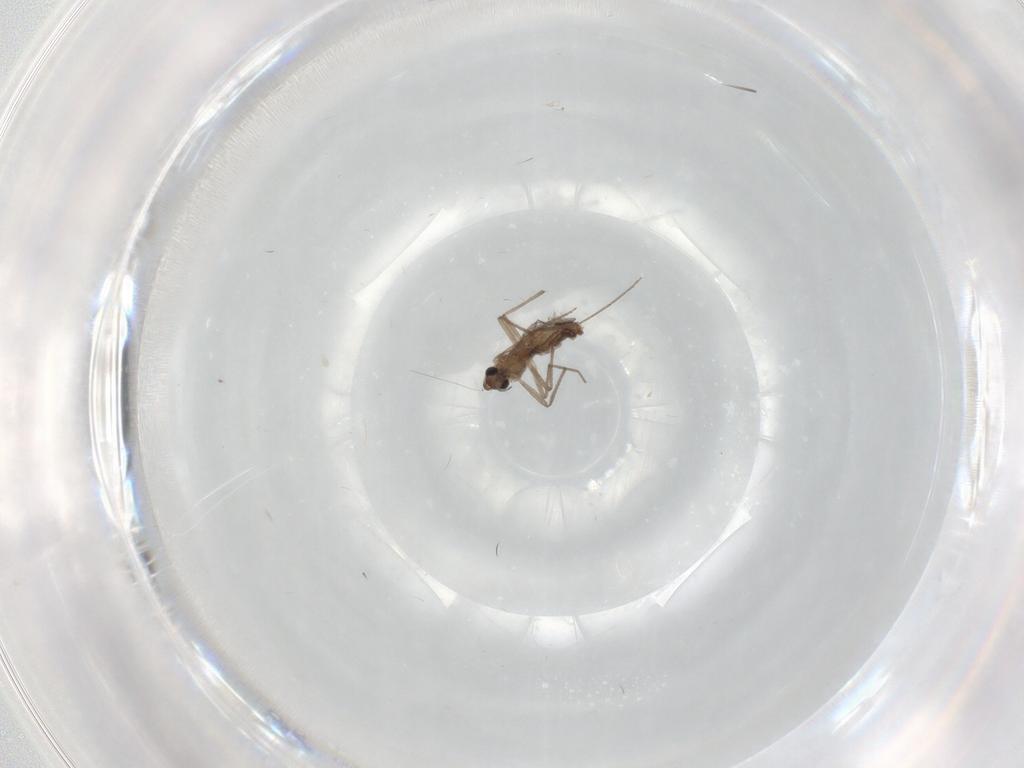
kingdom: Animalia
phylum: Arthropoda
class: Insecta
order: Diptera
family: Chironomidae
